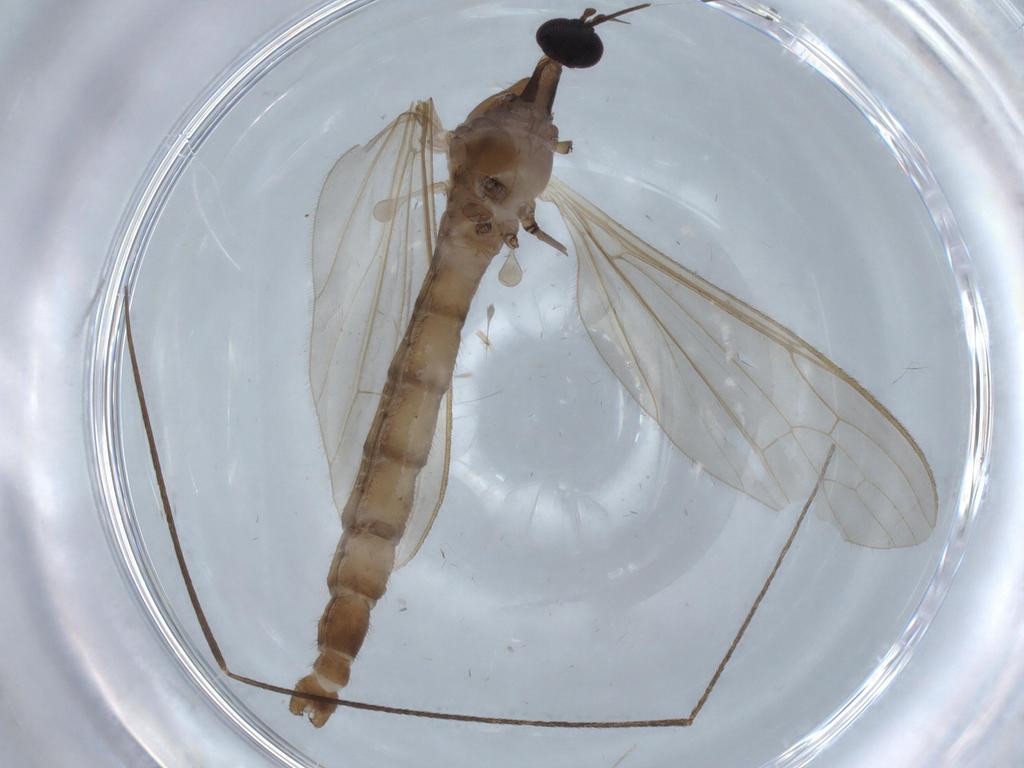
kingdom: Animalia
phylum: Arthropoda
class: Insecta
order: Diptera
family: Chironomidae
